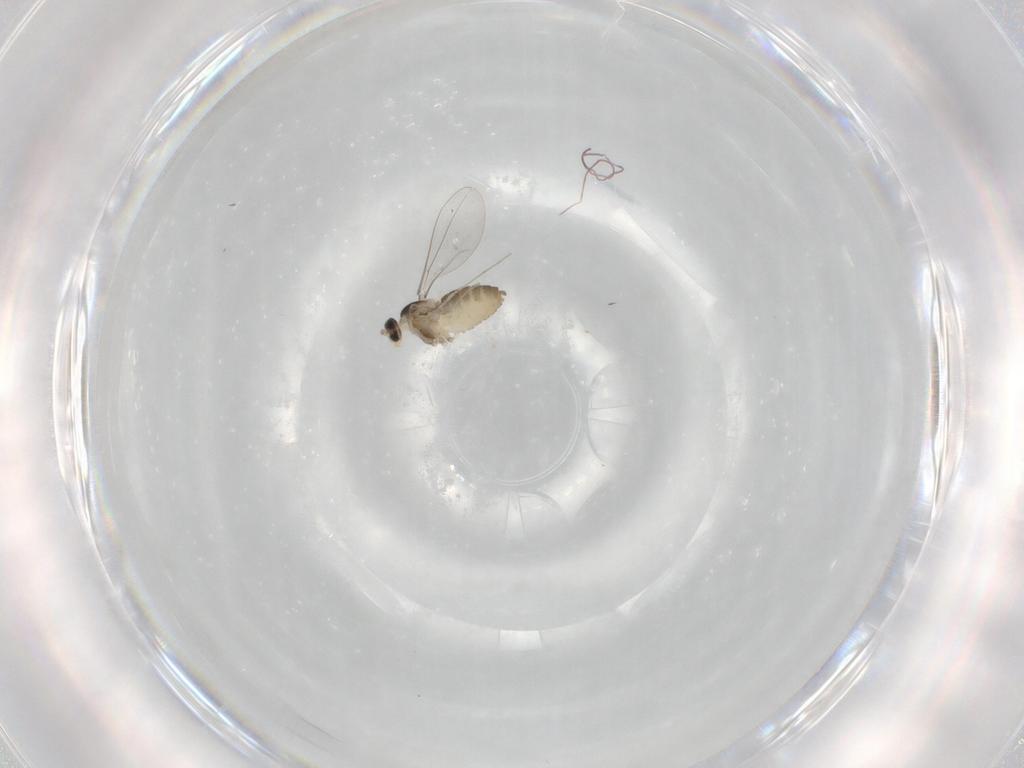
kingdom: Animalia
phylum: Arthropoda
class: Insecta
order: Diptera
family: Cecidomyiidae
